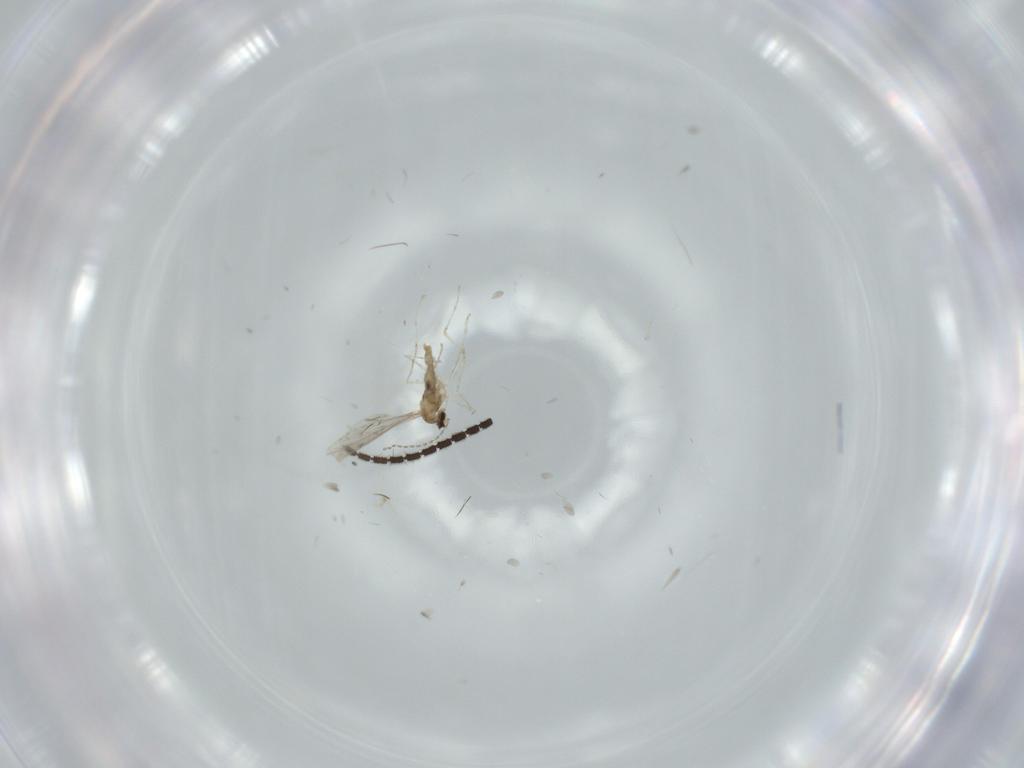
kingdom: Animalia
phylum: Arthropoda
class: Insecta
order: Diptera
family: Sciaridae
